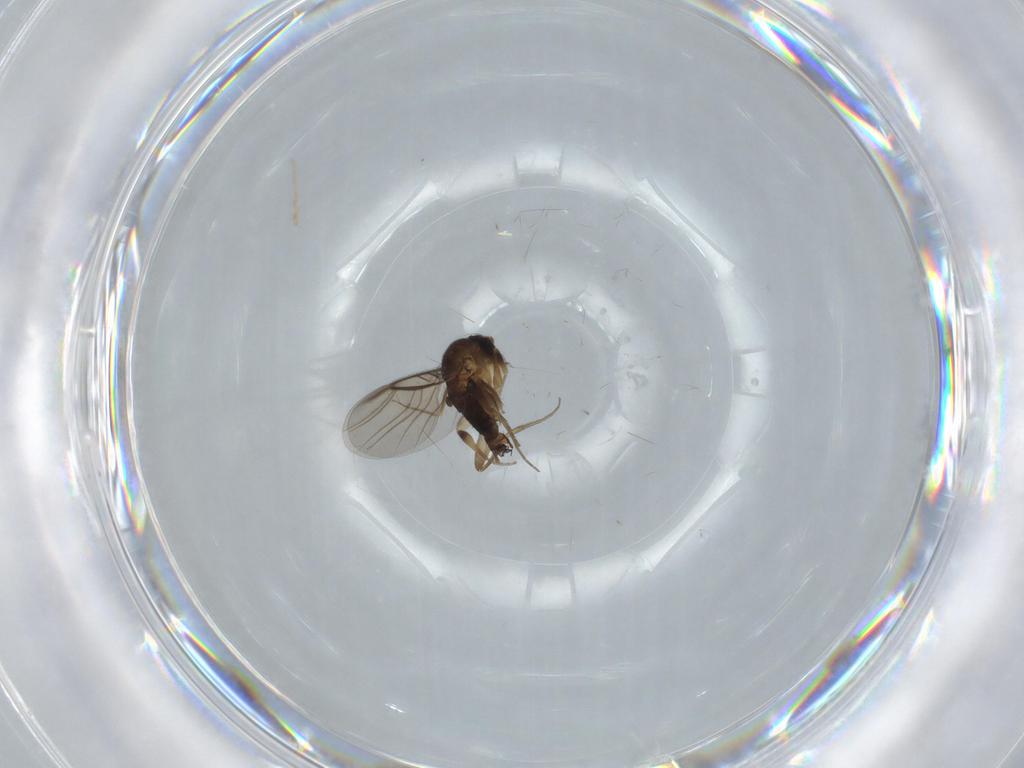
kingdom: Animalia
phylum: Arthropoda
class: Insecta
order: Diptera
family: Phoridae
